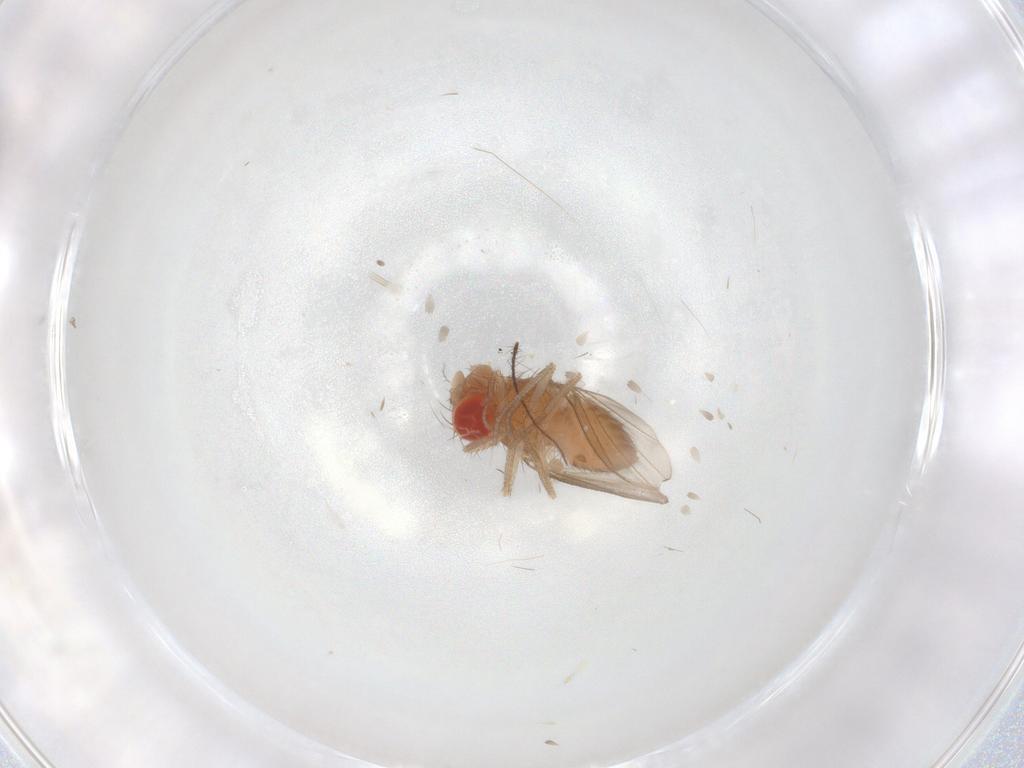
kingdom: Animalia
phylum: Arthropoda
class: Insecta
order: Diptera
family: Drosophilidae
